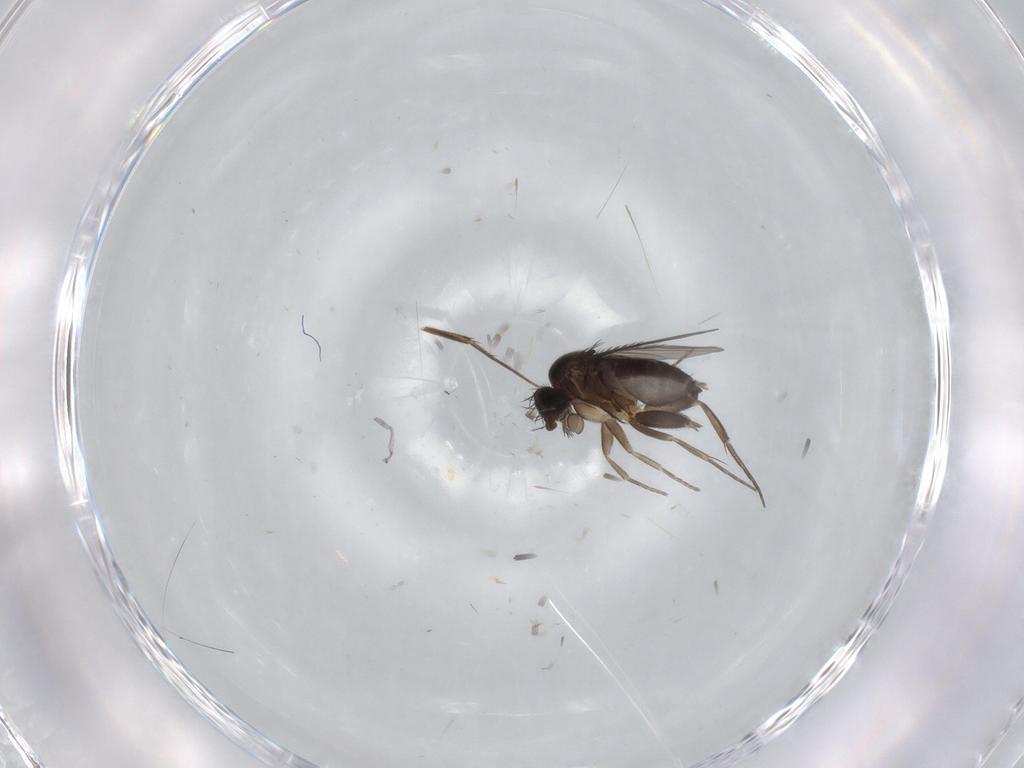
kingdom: Animalia
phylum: Arthropoda
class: Insecta
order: Diptera
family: Phoridae
